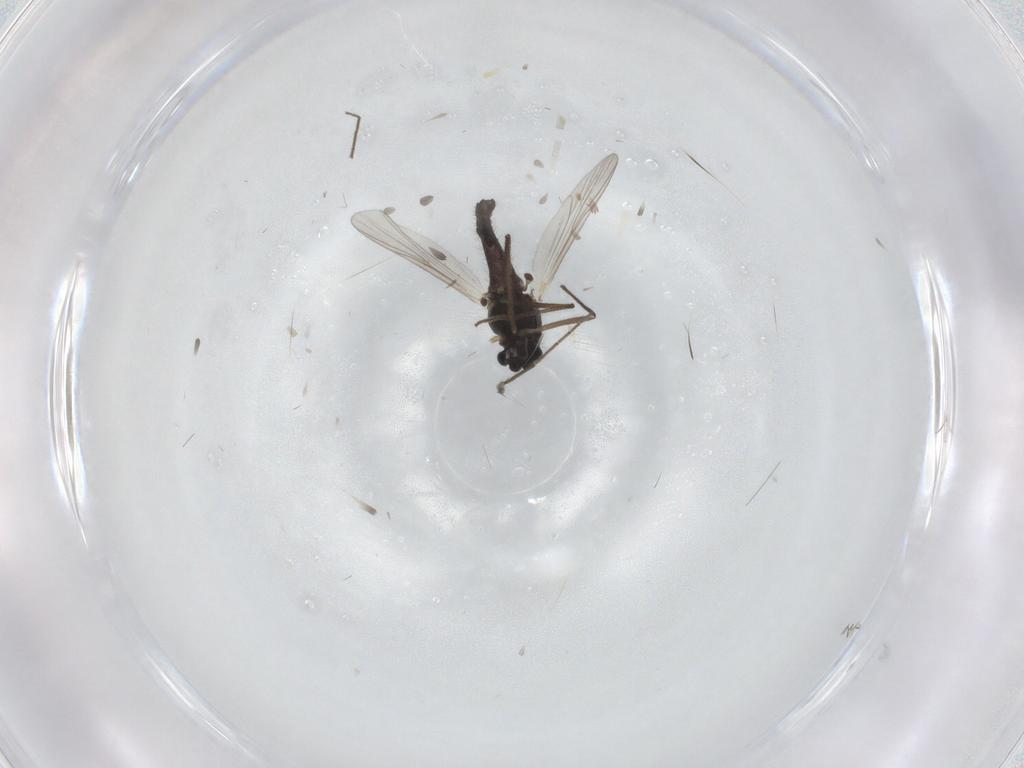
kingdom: Animalia
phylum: Arthropoda
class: Insecta
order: Diptera
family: Chironomidae
